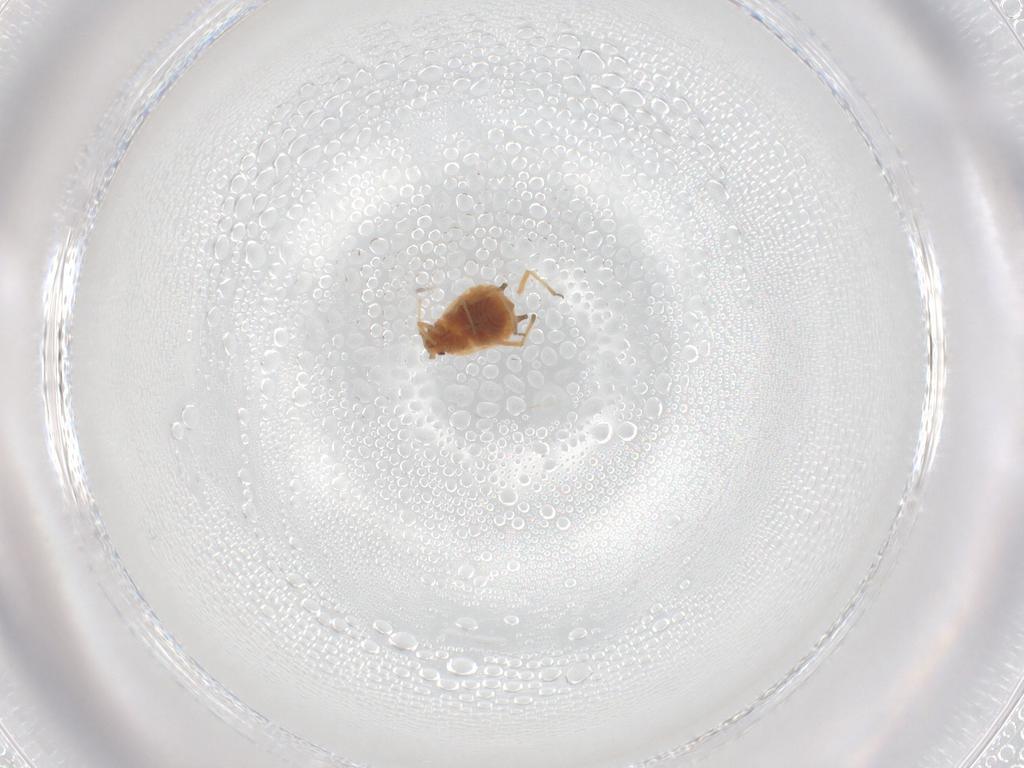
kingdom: Animalia
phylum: Arthropoda
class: Insecta
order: Hemiptera
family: Aphididae
